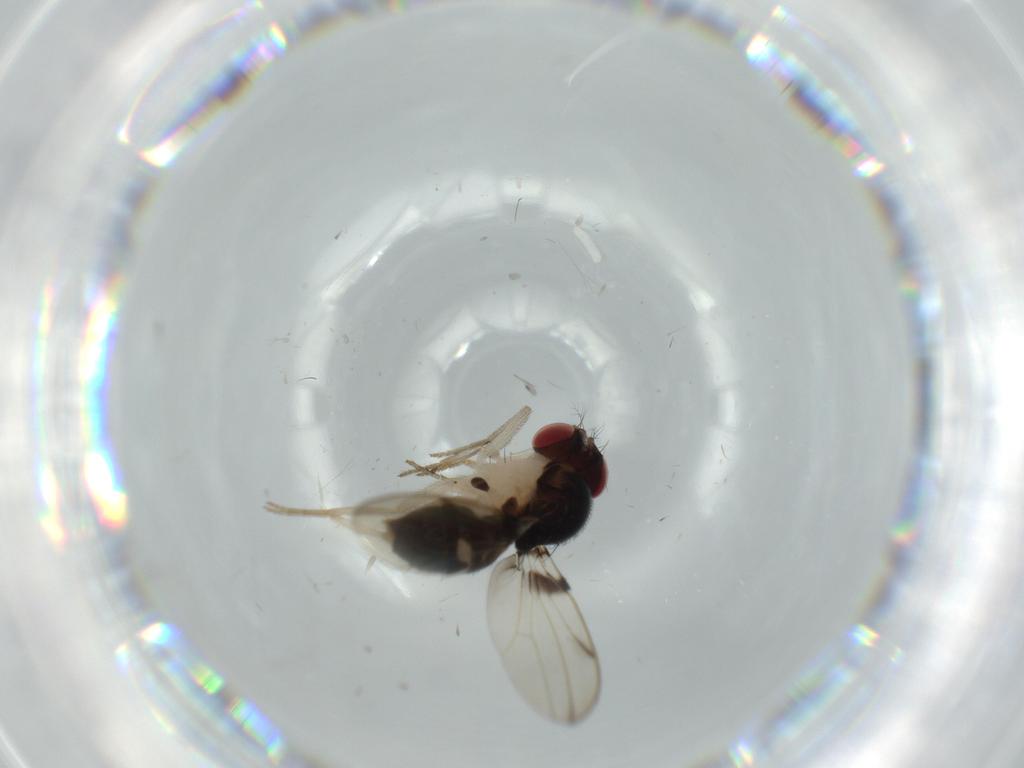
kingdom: Animalia
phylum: Arthropoda
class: Insecta
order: Diptera
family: Drosophilidae
